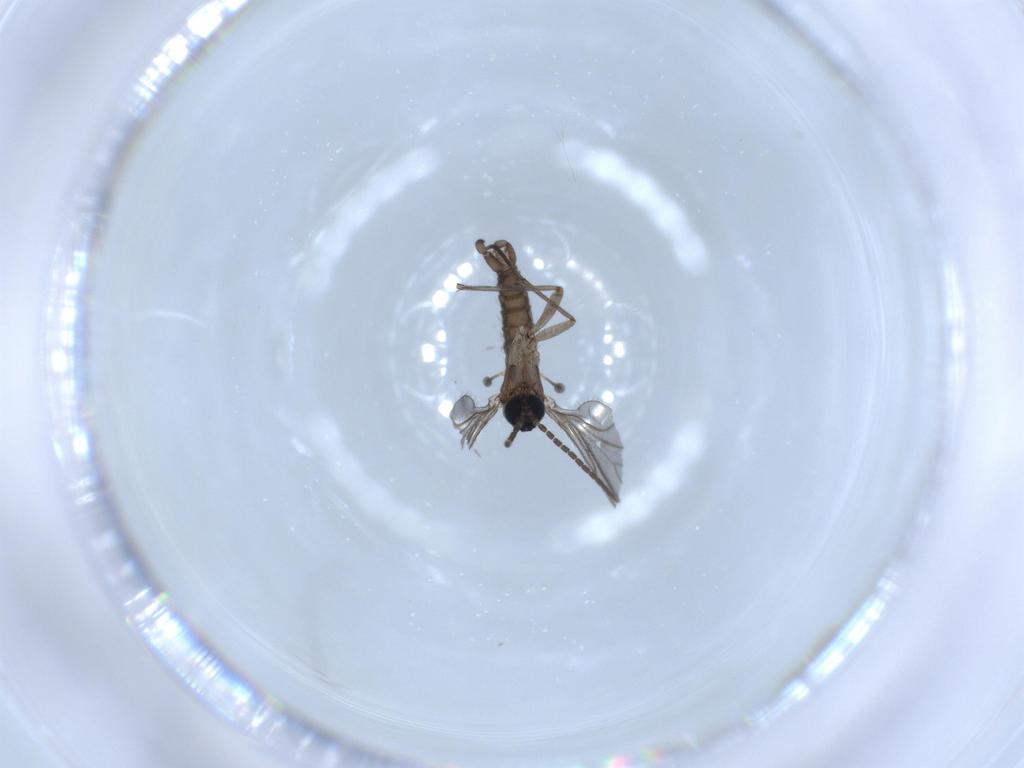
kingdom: Animalia
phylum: Arthropoda
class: Insecta
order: Diptera
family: Sciaridae
